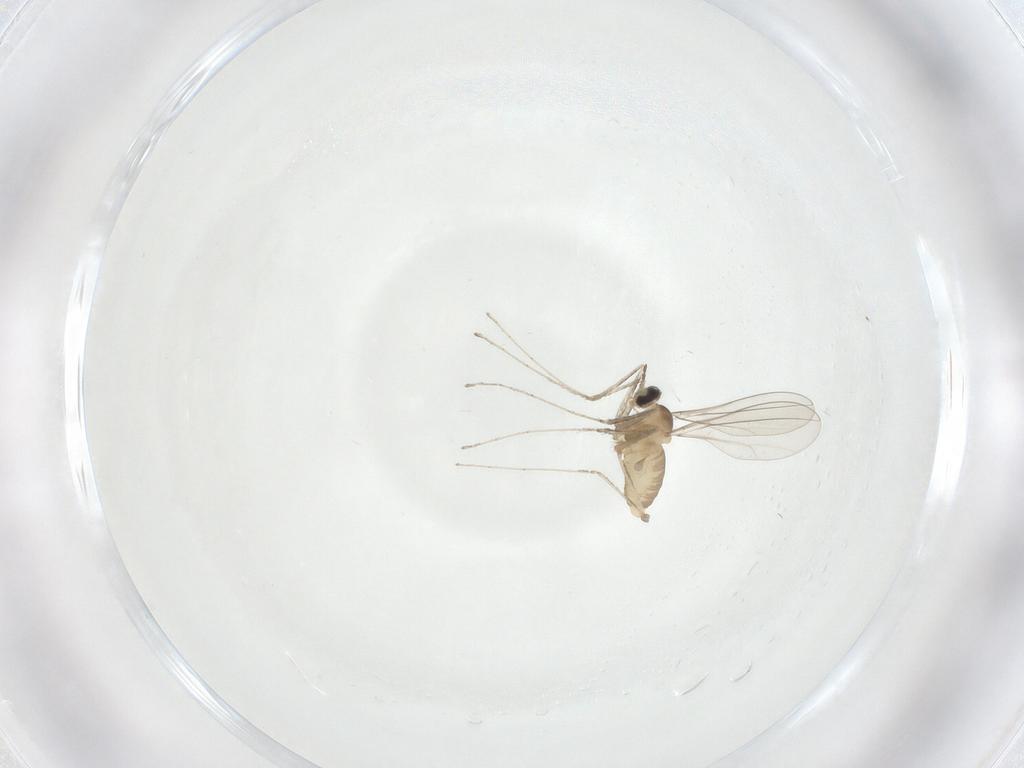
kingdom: Animalia
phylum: Arthropoda
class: Insecta
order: Diptera
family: Cecidomyiidae
